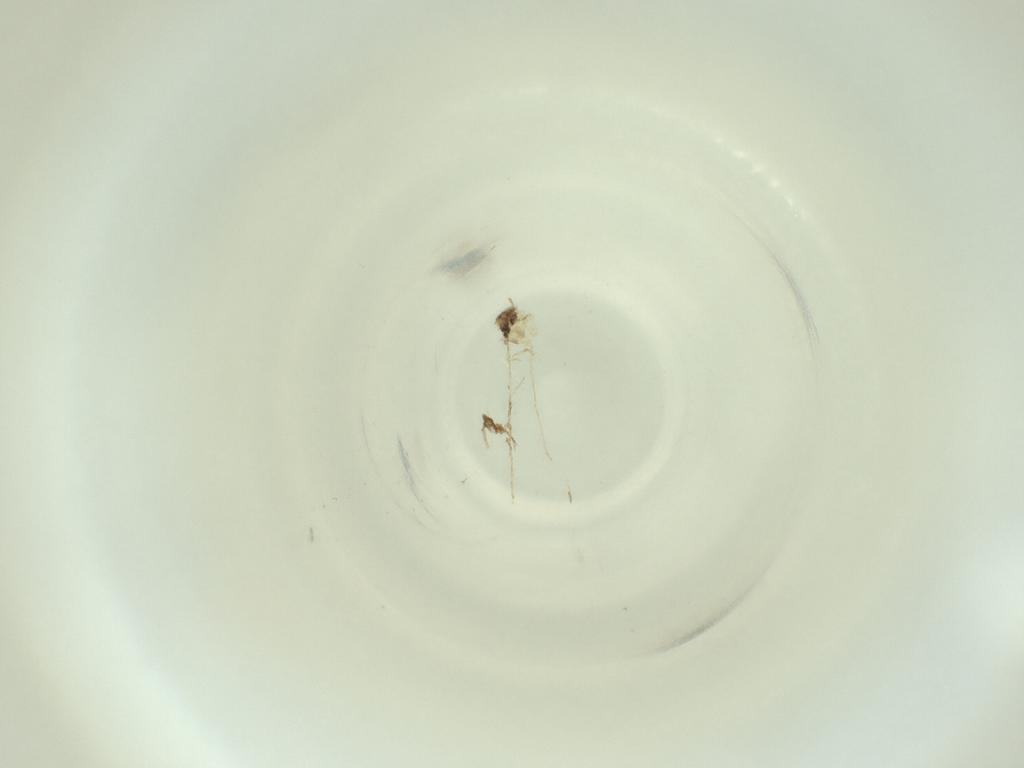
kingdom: Animalia
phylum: Arthropoda
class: Insecta
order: Diptera
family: Cecidomyiidae
